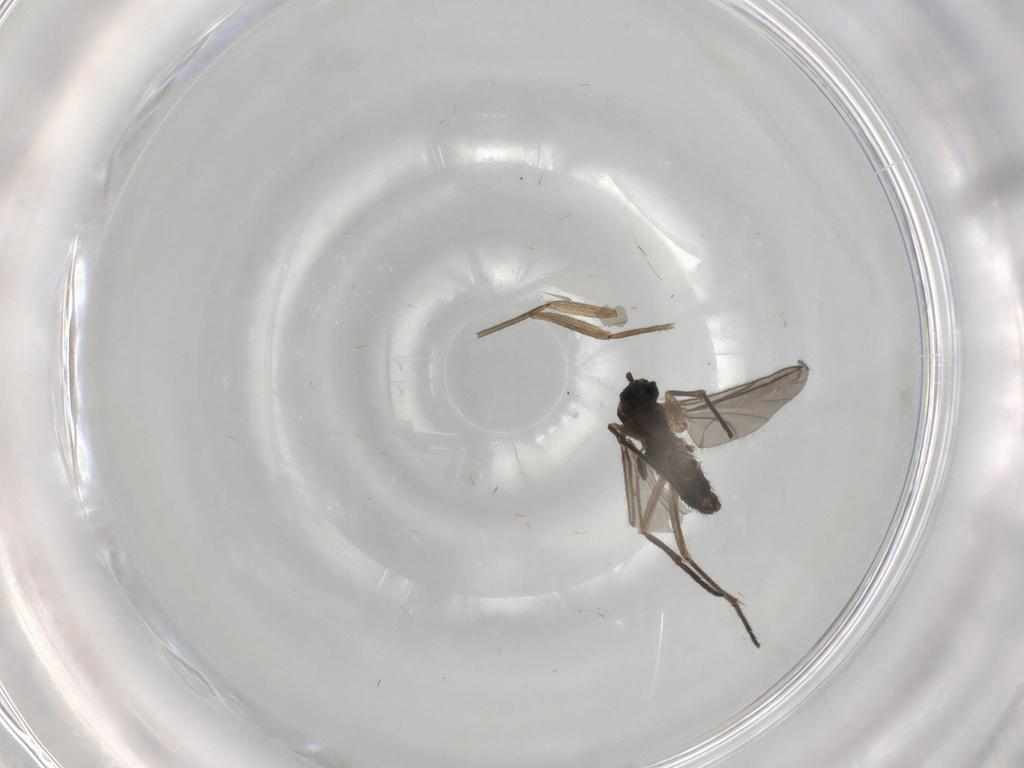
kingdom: Animalia
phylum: Arthropoda
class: Insecta
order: Diptera
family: Sciaridae
